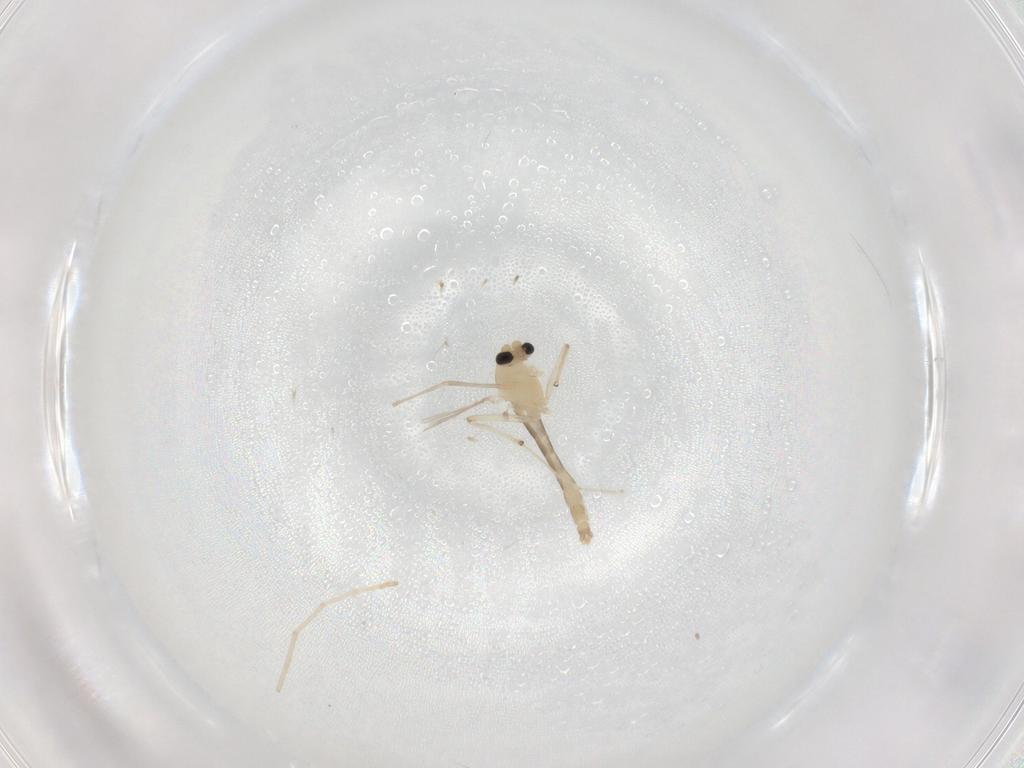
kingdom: Animalia
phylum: Arthropoda
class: Insecta
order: Diptera
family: Chironomidae
